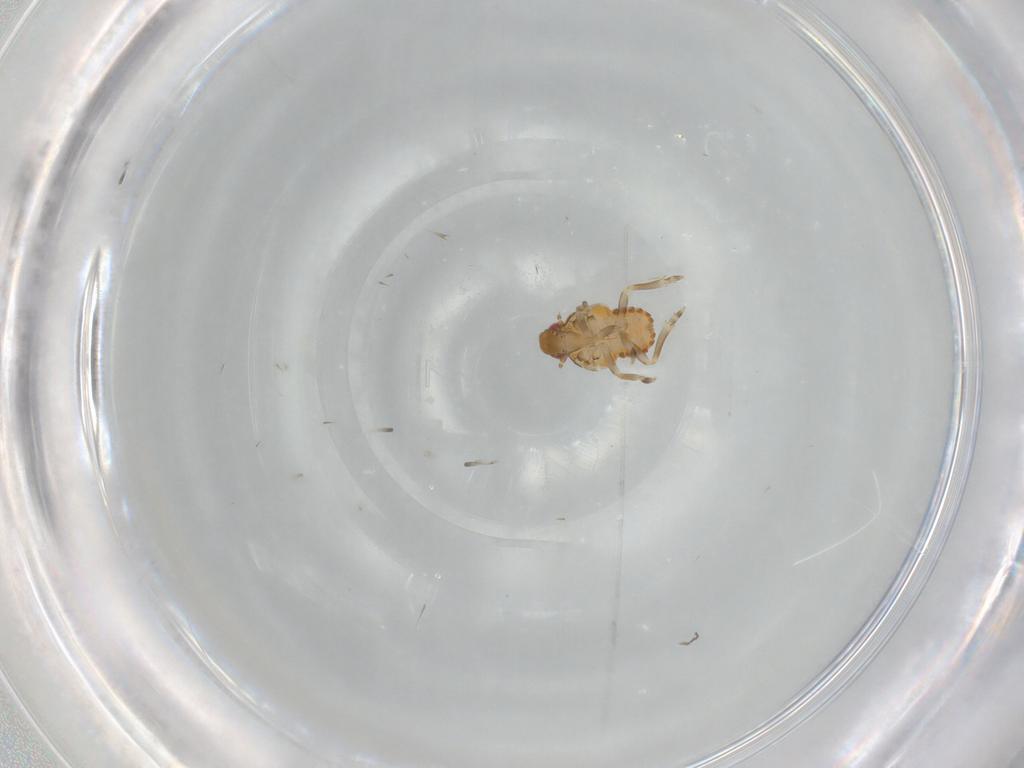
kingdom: Animalia
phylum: Arthropoda
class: Insecta
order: Hemiptera
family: Flatidae
